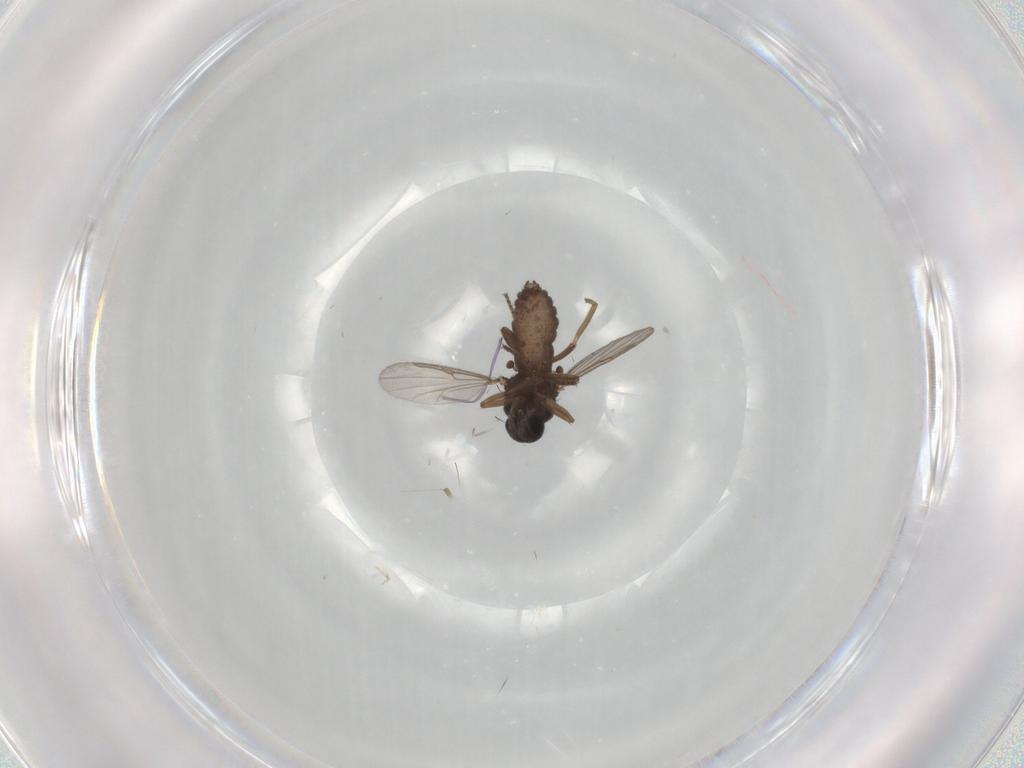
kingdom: Animalia
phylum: Arthropoda
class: Insecta
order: Diptera
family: Ceratopogonidae
